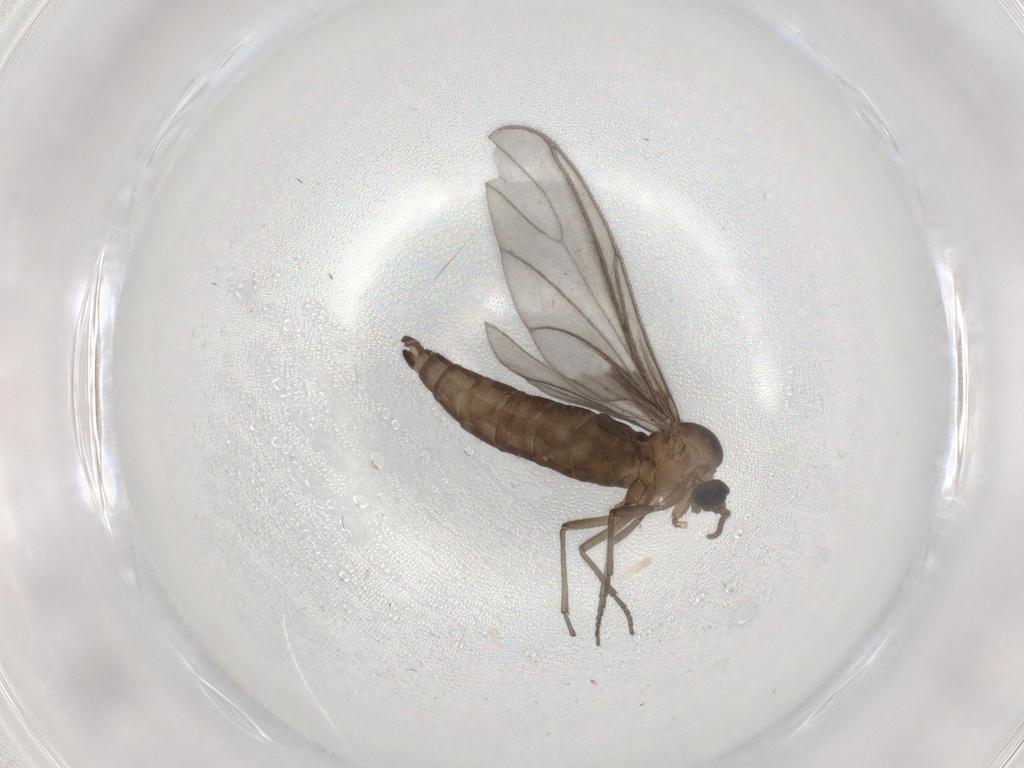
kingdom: Animalia
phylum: Arthropoda
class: Insecta
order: Diptera
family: Sciaridae
